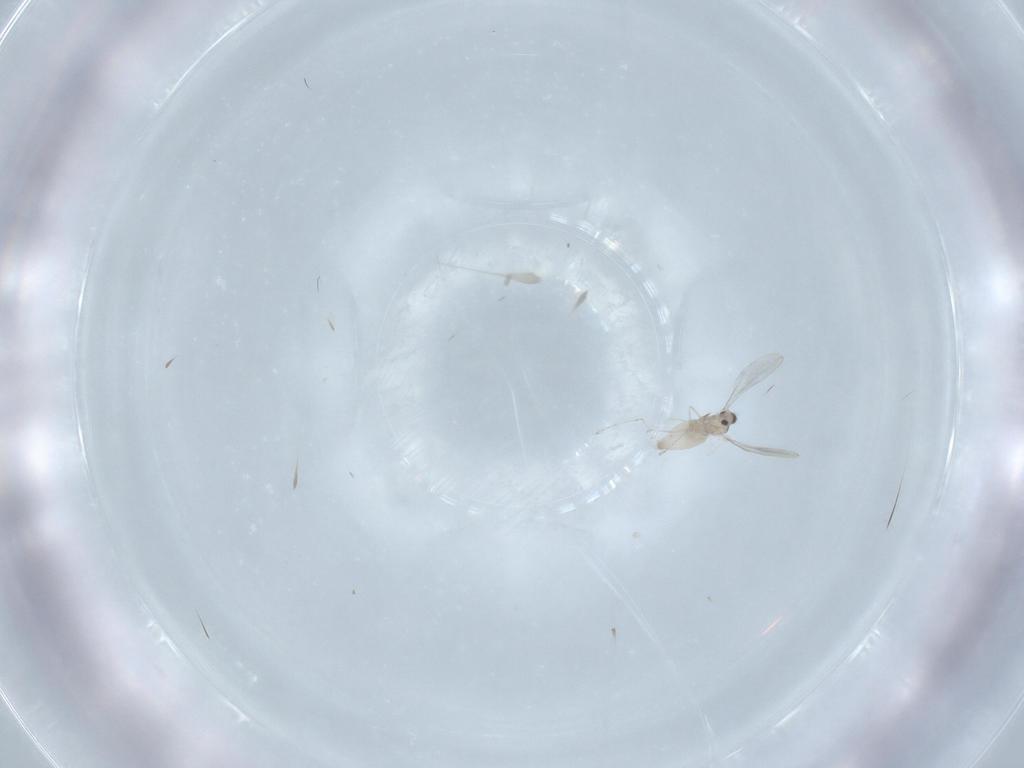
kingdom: Animalia
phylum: Arthropoda
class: Insecta
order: Diptera
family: Cecidomyiidae
